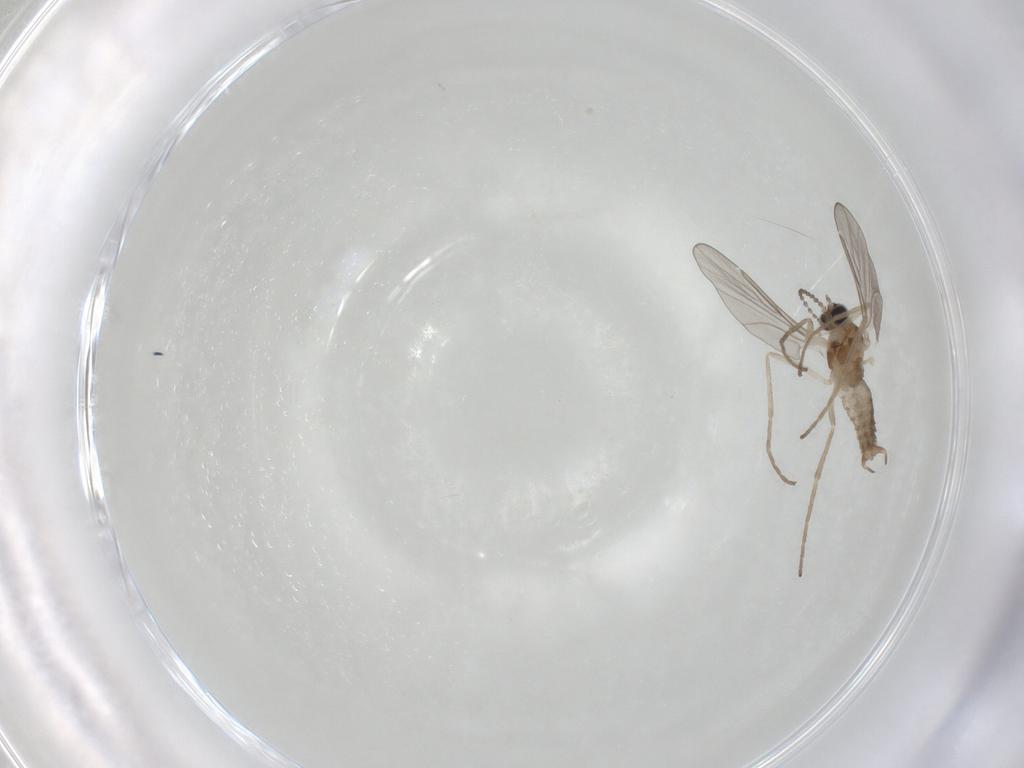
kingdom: Animalia
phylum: Arthropoda
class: Insecta
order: Diptera
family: Cecidomyiidae
